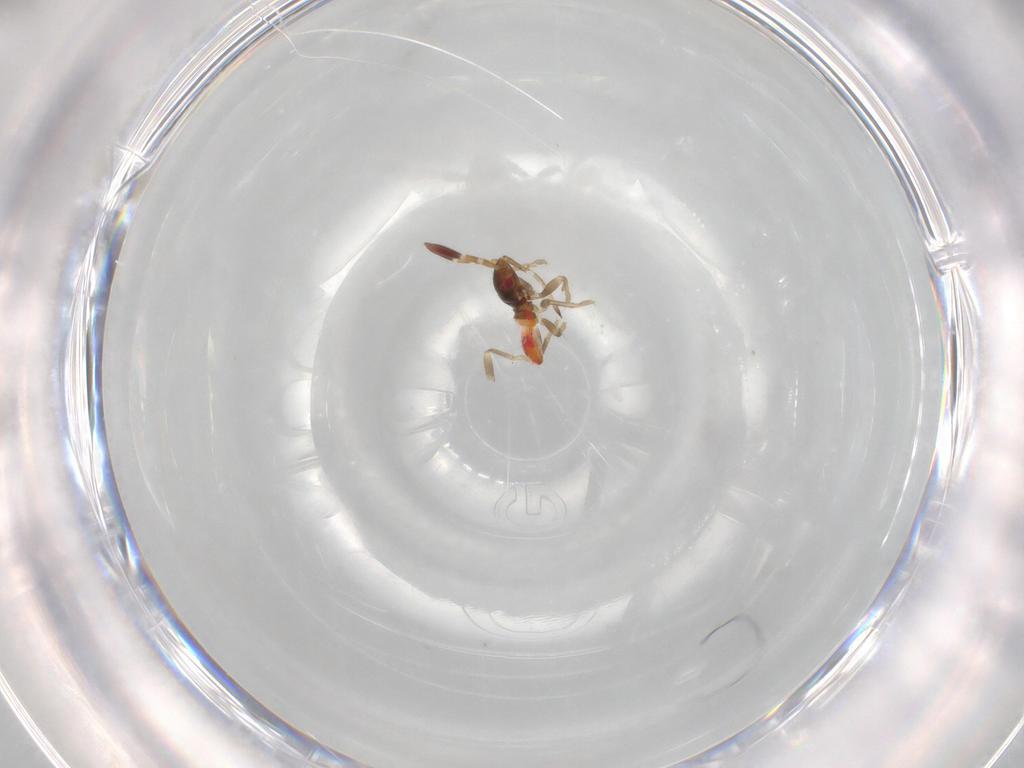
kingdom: Animalia
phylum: Arthropoda
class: Insecta
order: Hemiptera
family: Rhyparochromidae
